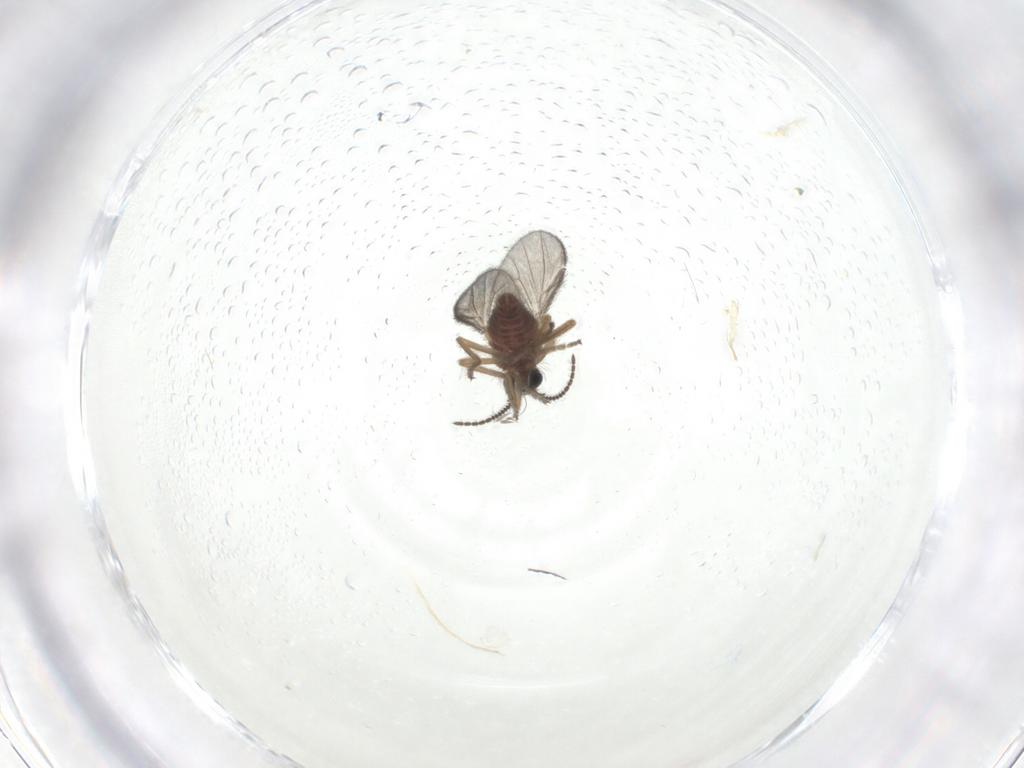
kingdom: Animalia
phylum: Arthropoda
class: Insecta
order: Diptera
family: Ceratopogonidae
